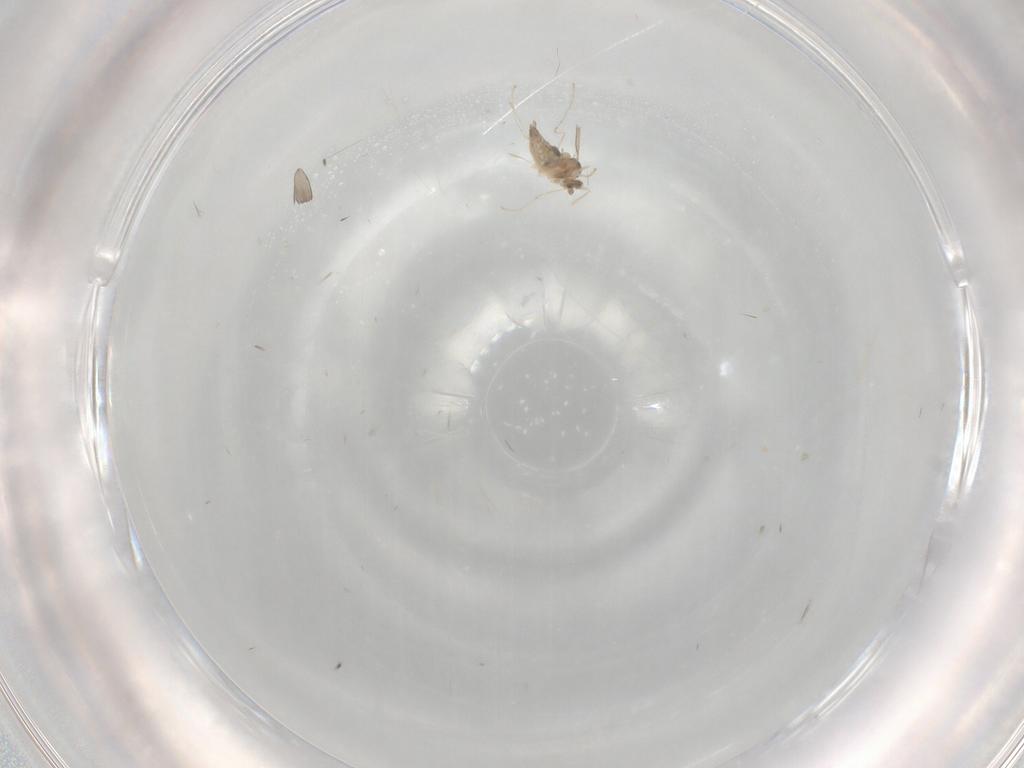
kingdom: Animalia
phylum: Arthropoda
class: Insecta
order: Diptera
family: Cecidomyiidae
